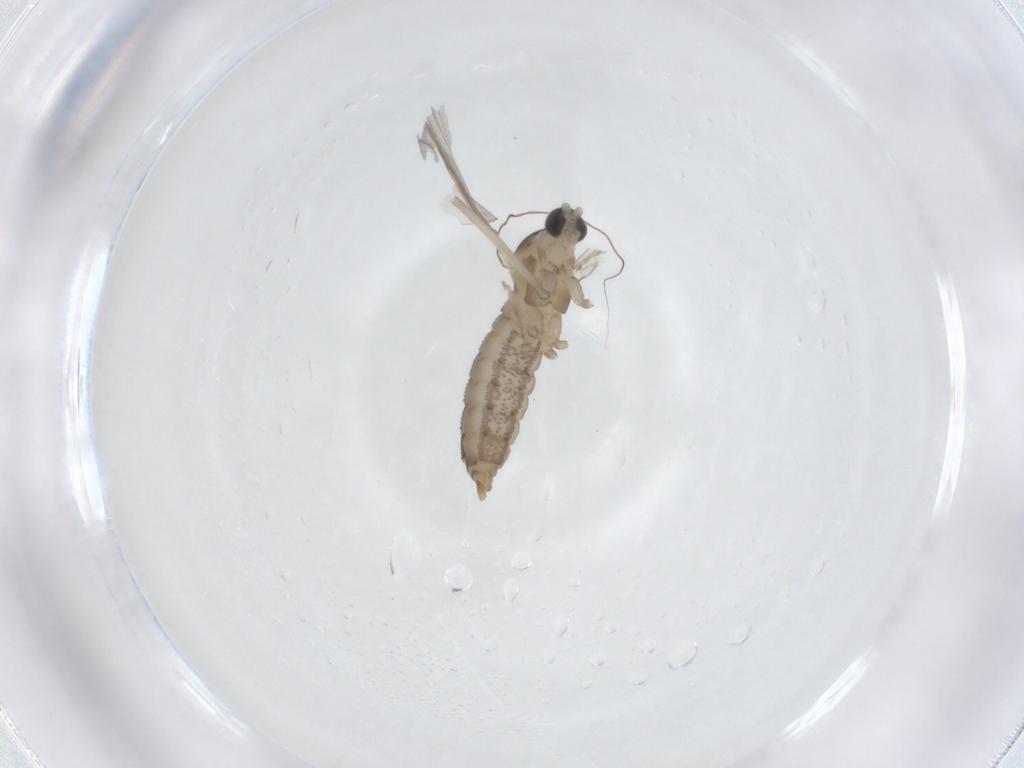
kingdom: Animalia
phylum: Arthropoda
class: Insecta
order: Diptera
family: Cecidomyiidae
